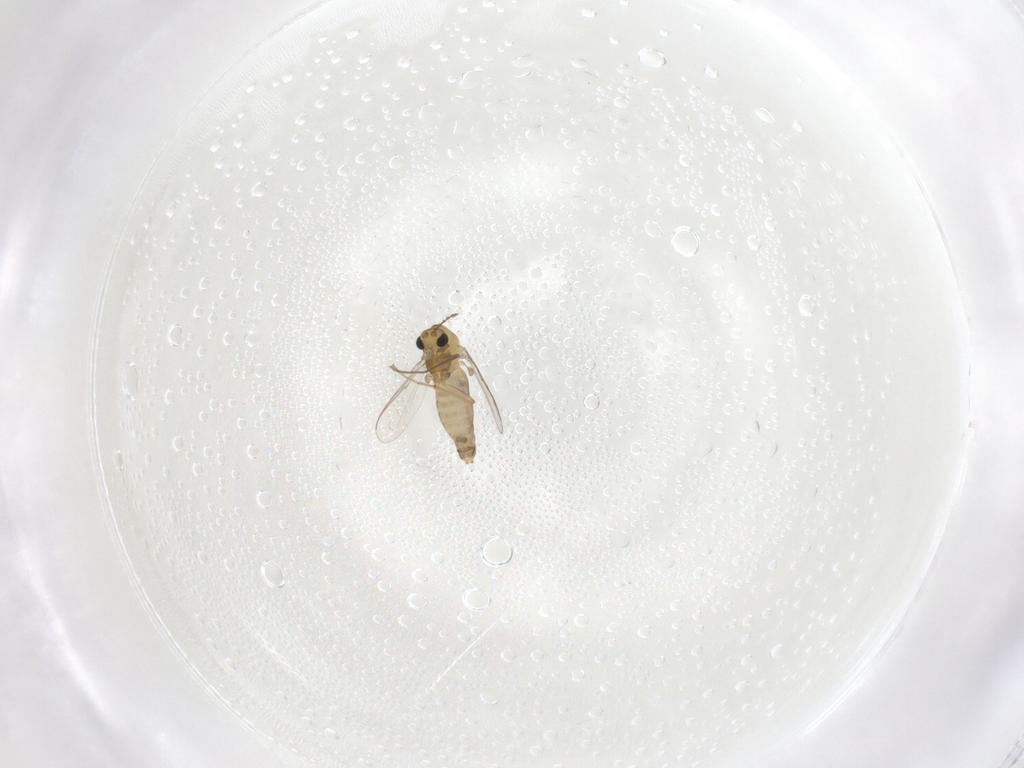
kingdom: Animalia
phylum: Arthropoda
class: Insecta
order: Diptera
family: Chironomidae
